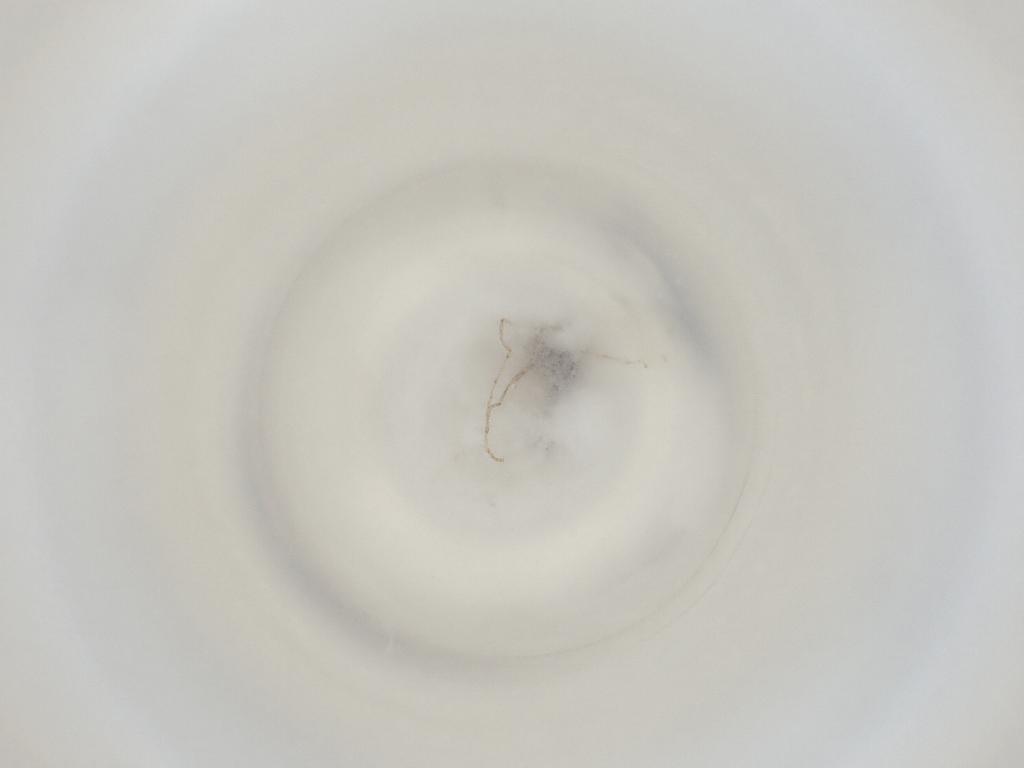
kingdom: Animalia
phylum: Arthropoda
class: Insecta
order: Diptera
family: Cecidomyiidae
